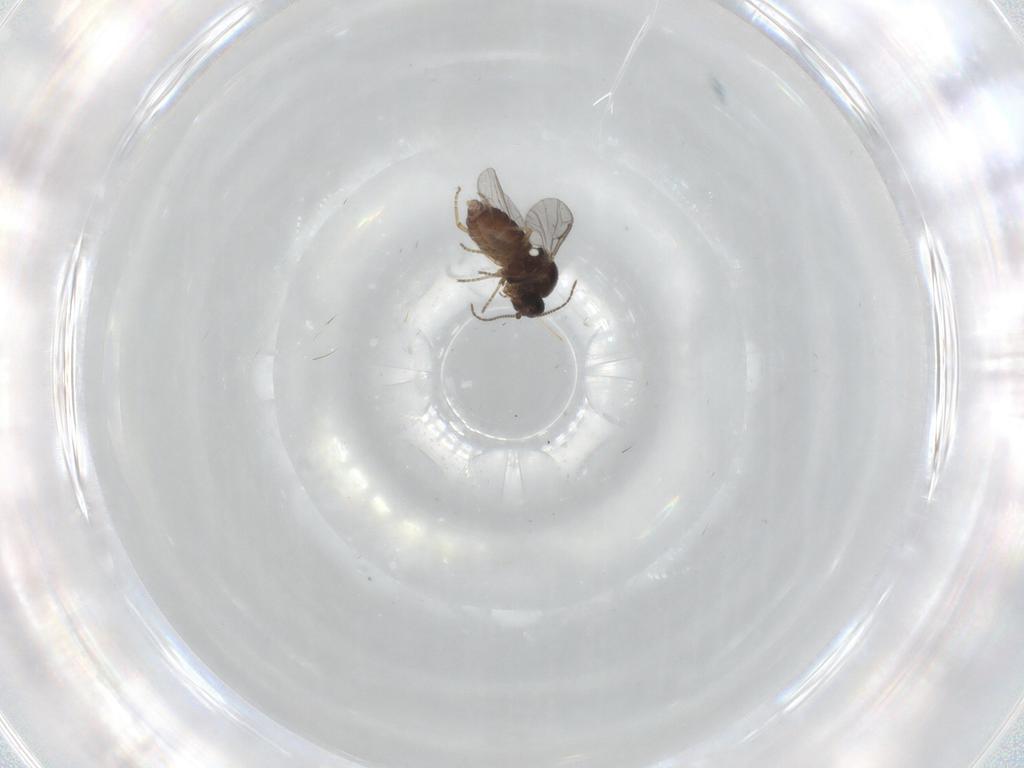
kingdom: Animalia
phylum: Arthropoda
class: Insecta
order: Diptera
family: Ceratopogonidae
